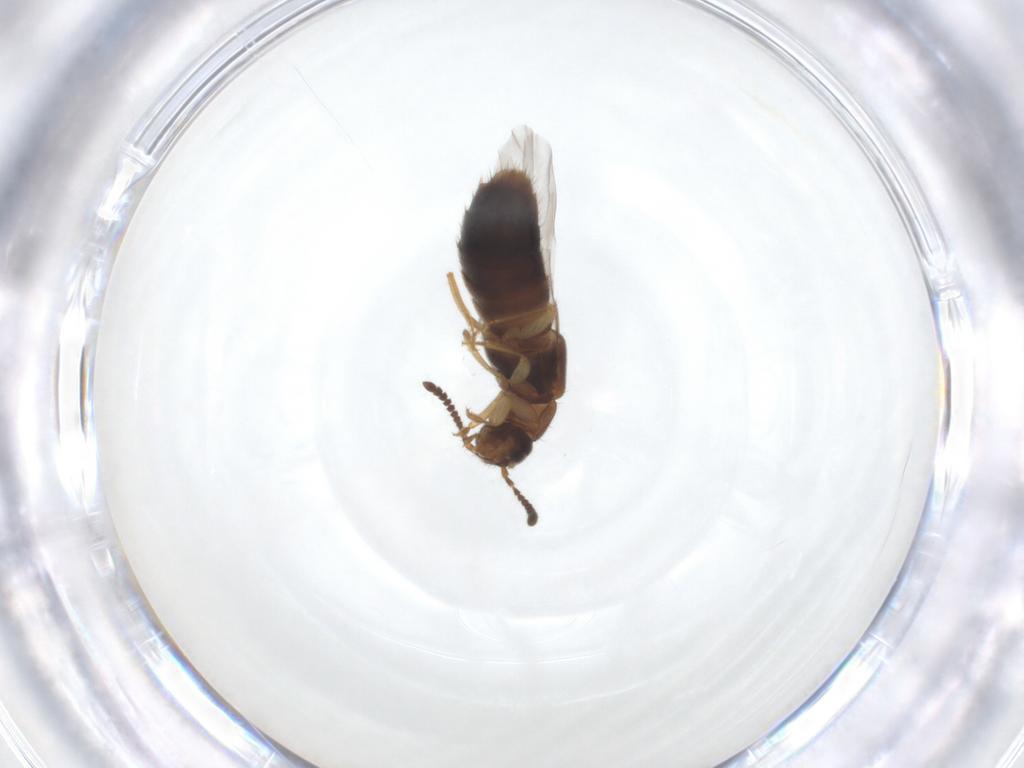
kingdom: Animalia
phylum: Arthropoda
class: Insecta
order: Coleoptera
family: Staphylinidae
